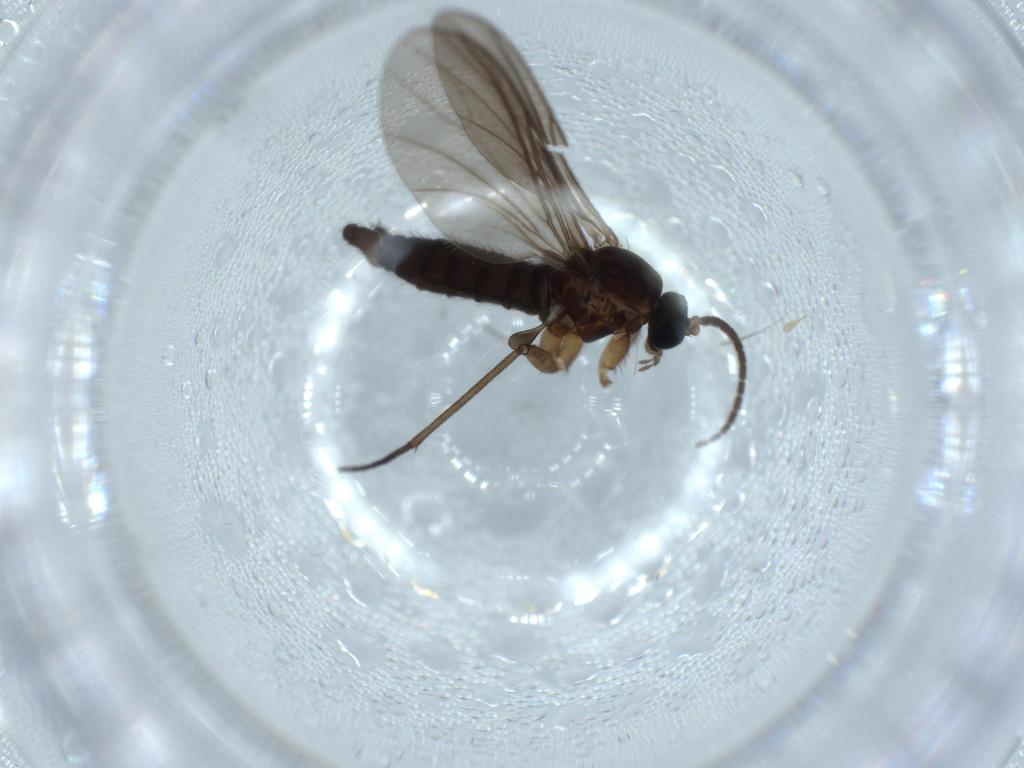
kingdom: Animalia
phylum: Arthropoda
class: Insecta
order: Diptera
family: Sciaridae
